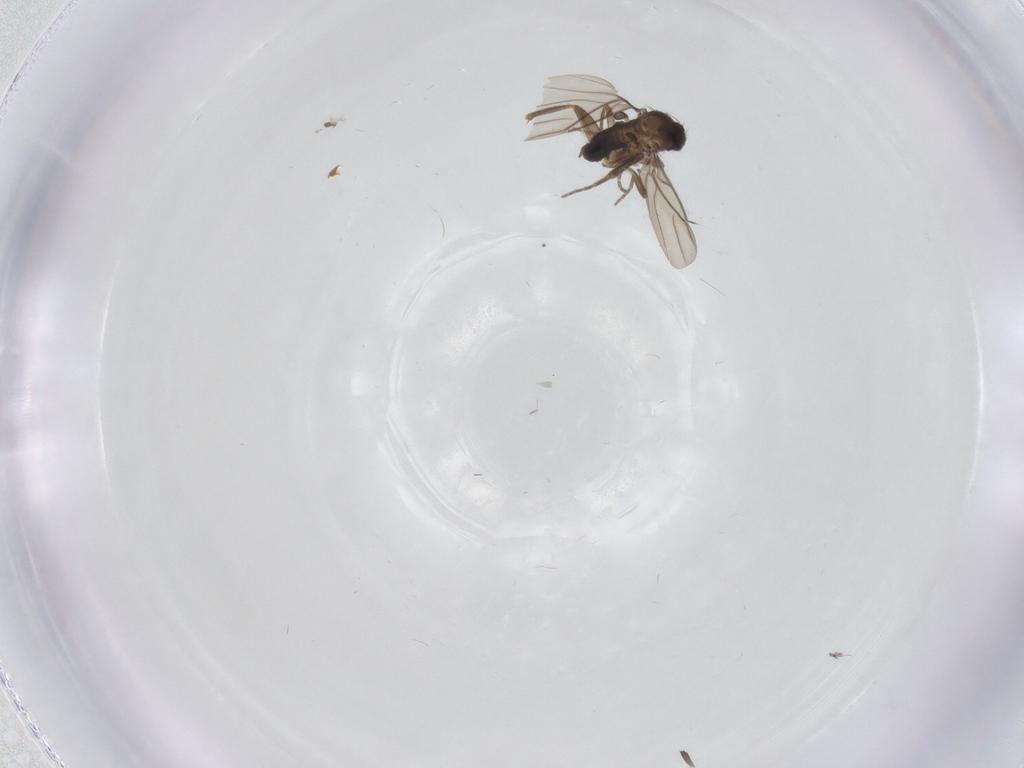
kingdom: Animalia
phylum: Arthropoda
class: Insecta
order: Diptera
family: Phoridae
